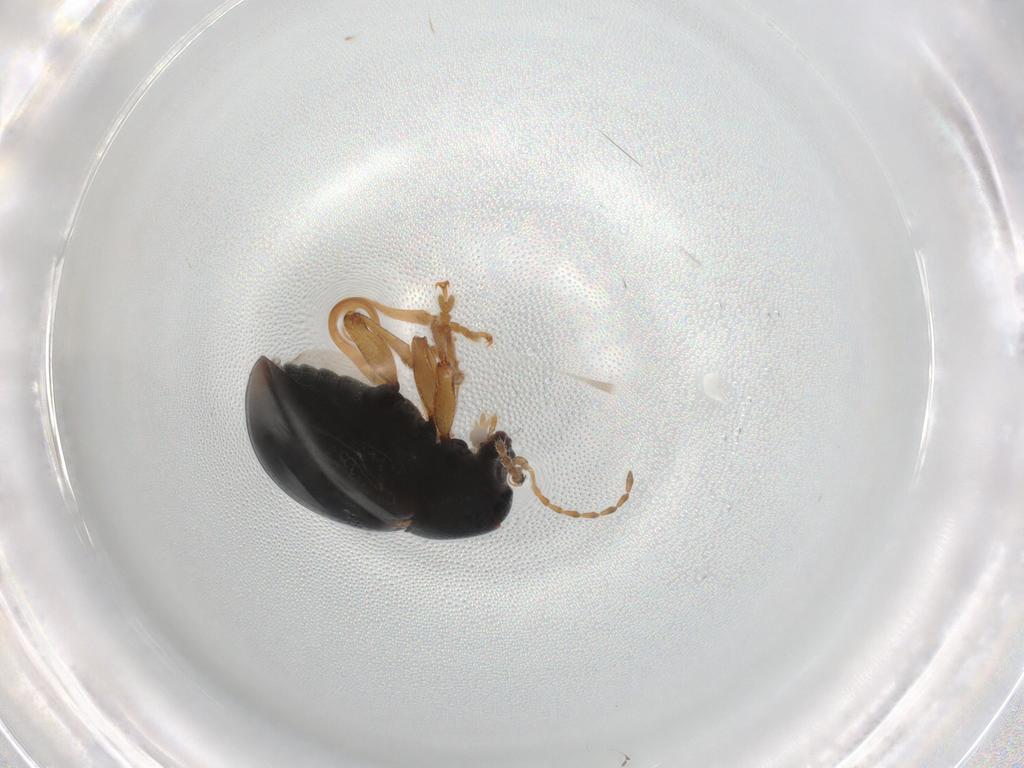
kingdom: Animalia
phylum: Arthropoda
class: Insecta
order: Coleoptera
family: Chrysomelidae
